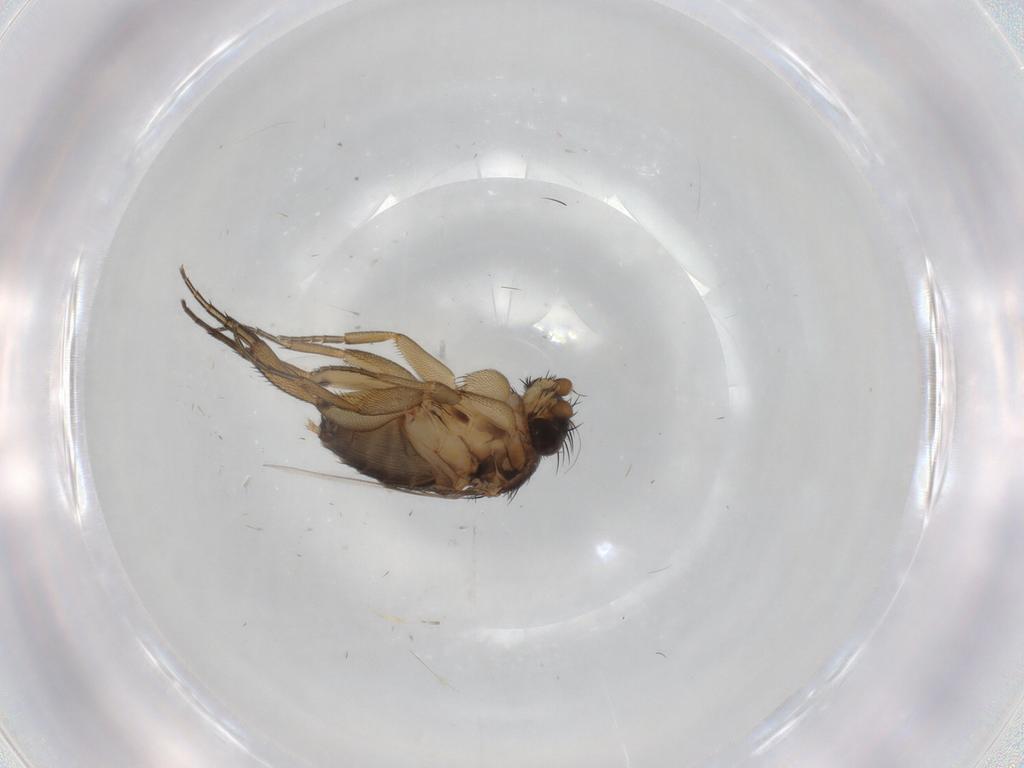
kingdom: Animalia
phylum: Arthropoda
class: Insecta
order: Diptera
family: Phoridae
